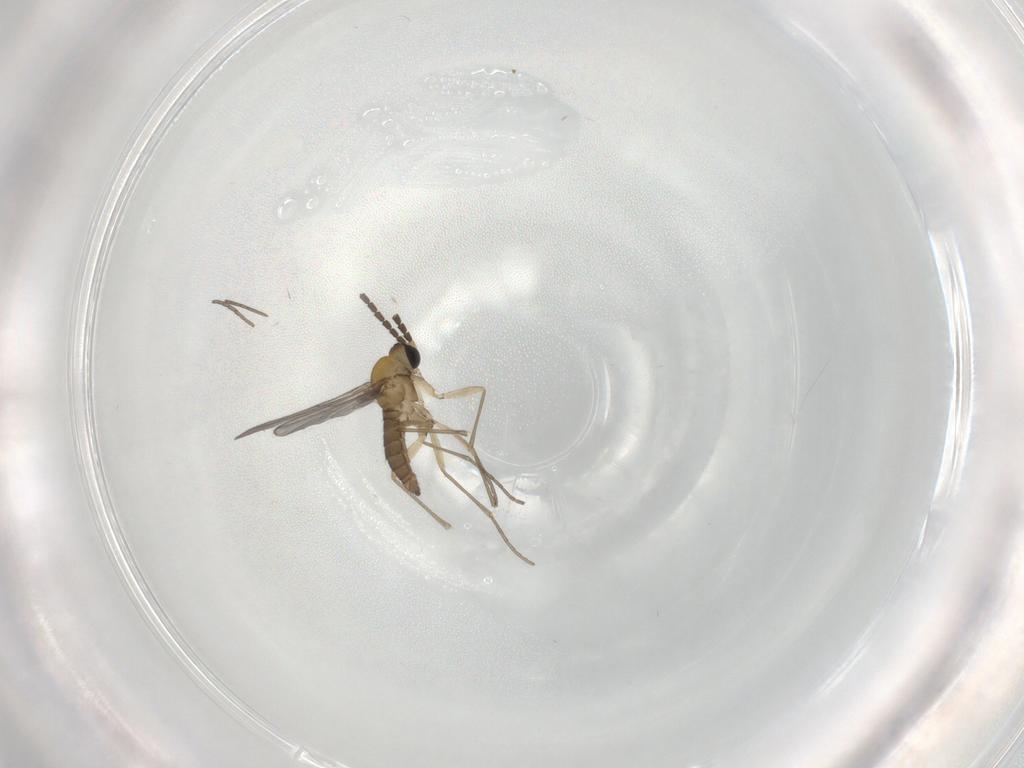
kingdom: Animalia
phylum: Arthropoda
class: Insecta
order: Diptera
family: Sciaridae
